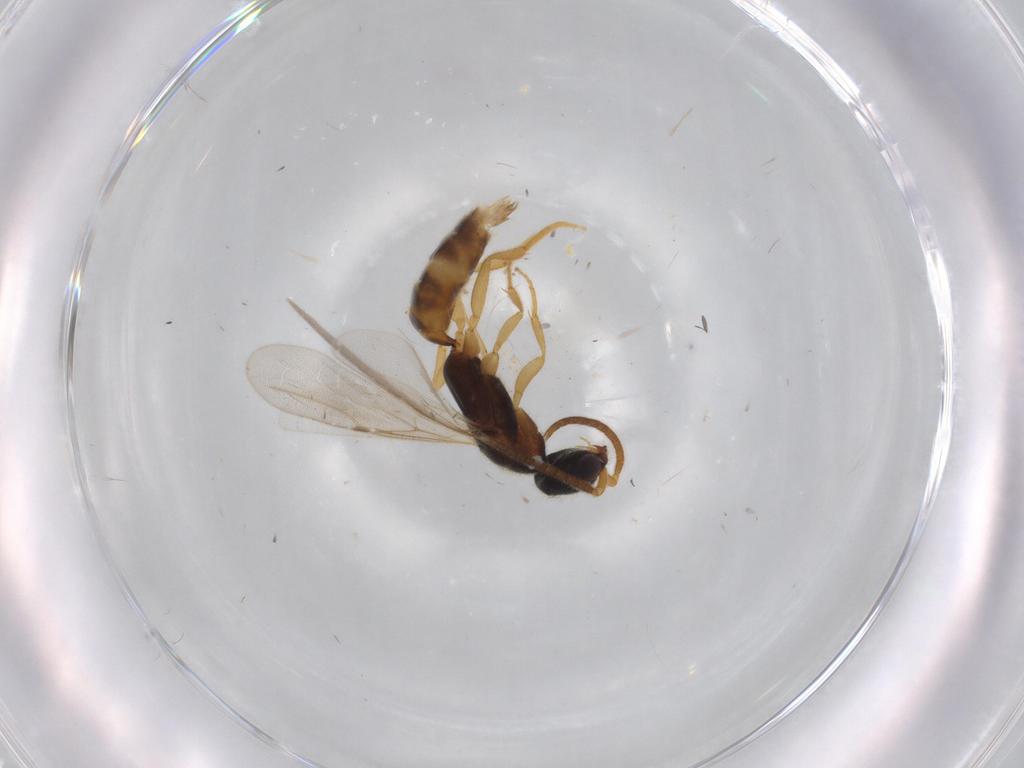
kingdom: Animalia
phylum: Arthropoda
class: Insecta
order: Hymenoptera
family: Bethylidae
